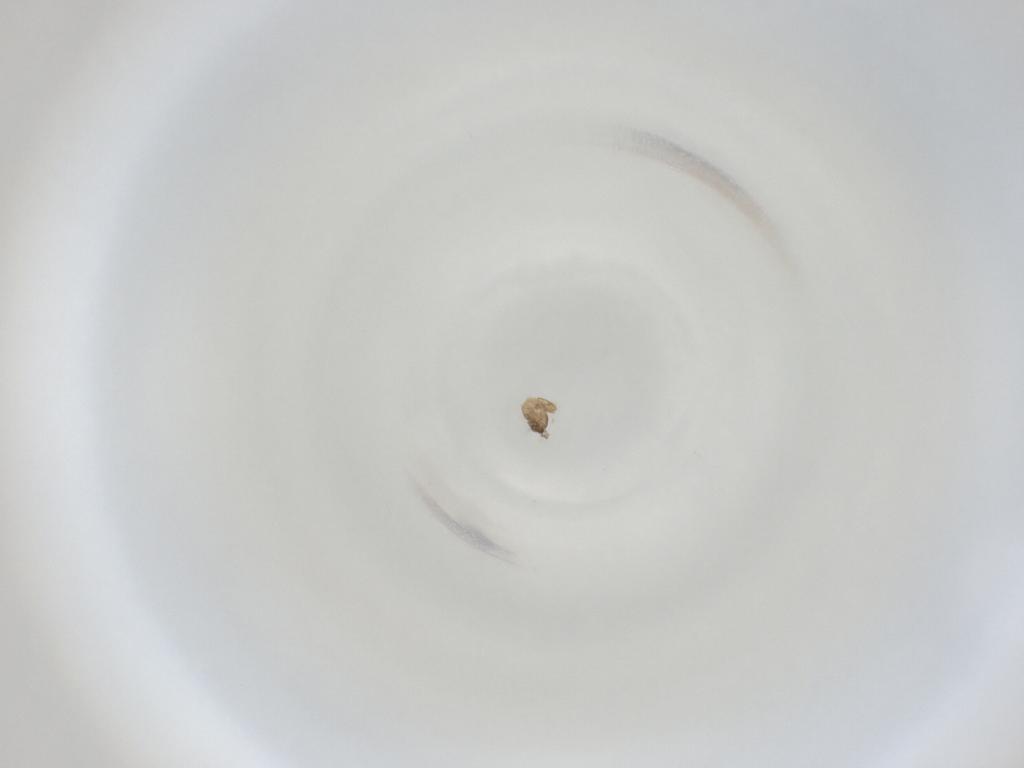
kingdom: Animalia
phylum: Arthropoda
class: Insecta
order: Diptera
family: Cecidomyiidae
